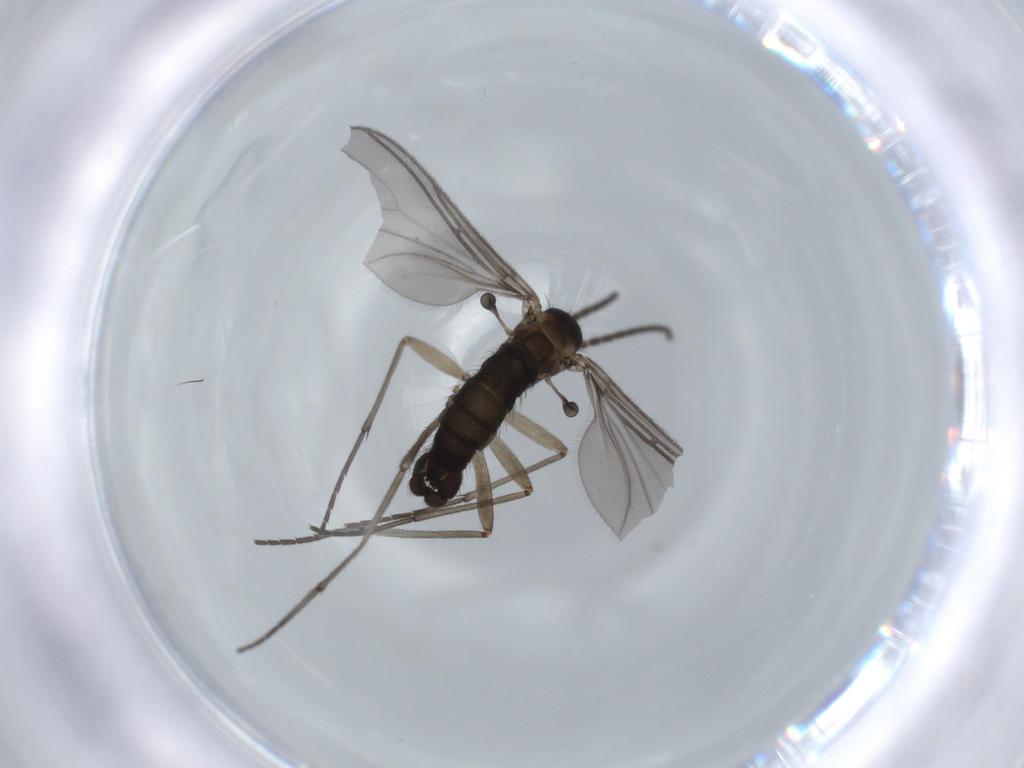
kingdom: Animalia
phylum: Arthropoda
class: Insecta
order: Diptera
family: Sciaridae
